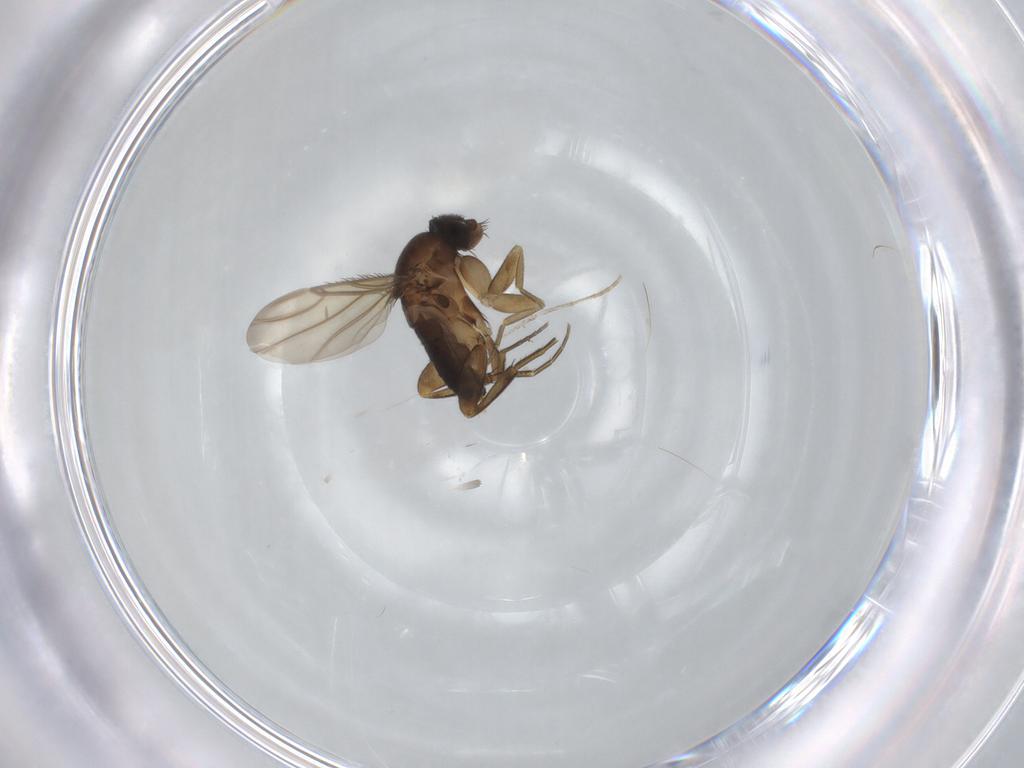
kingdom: Animalia
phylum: Arthropoda
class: Insecta
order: Diptera
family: Phoridae
